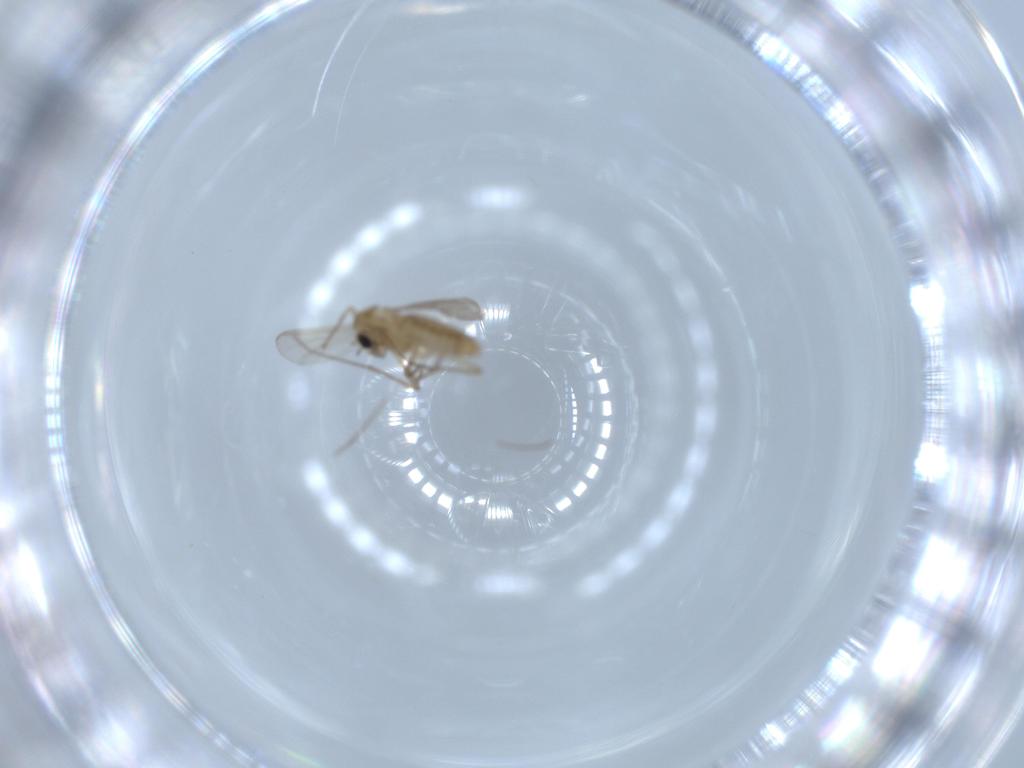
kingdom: Animalia
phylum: Arthropoda
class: Insecta
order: Diptera
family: Chironomidae
